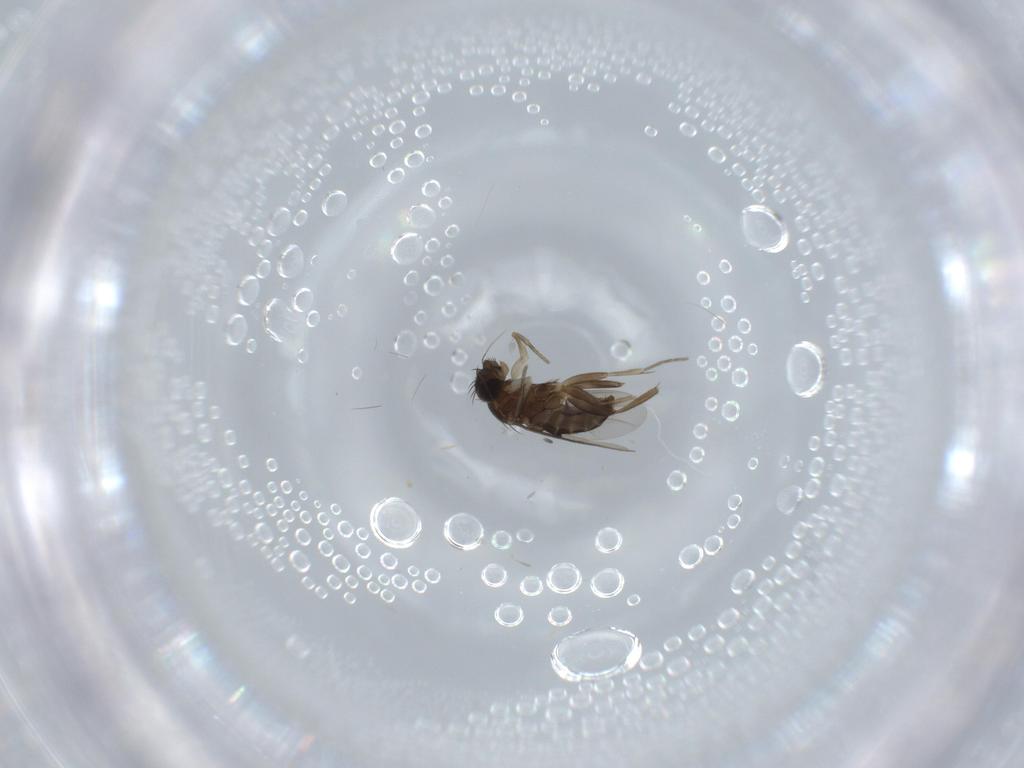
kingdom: Animalia
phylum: Arthropoda
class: Insecta
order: Diptera
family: Sciaridae
